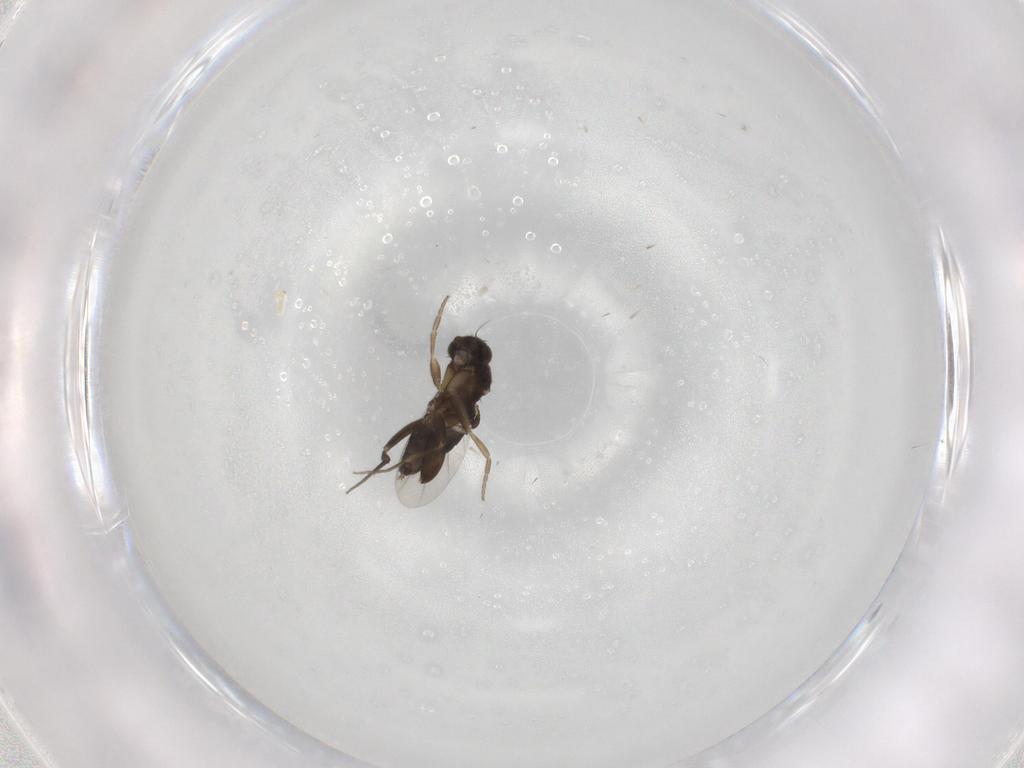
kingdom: Animalia
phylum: Arthropoda
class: Insecta
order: Diptera
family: Phoridae
